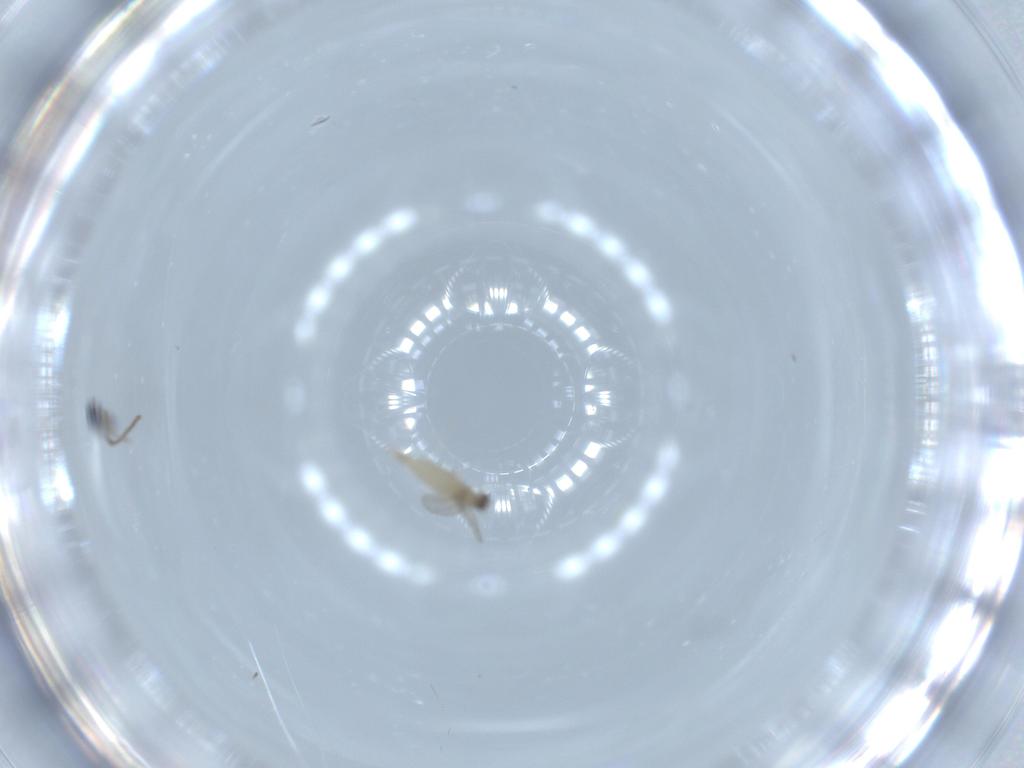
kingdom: Animalia
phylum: Arthropoda
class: Insecta
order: Diptera
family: Cecidomyiidae
